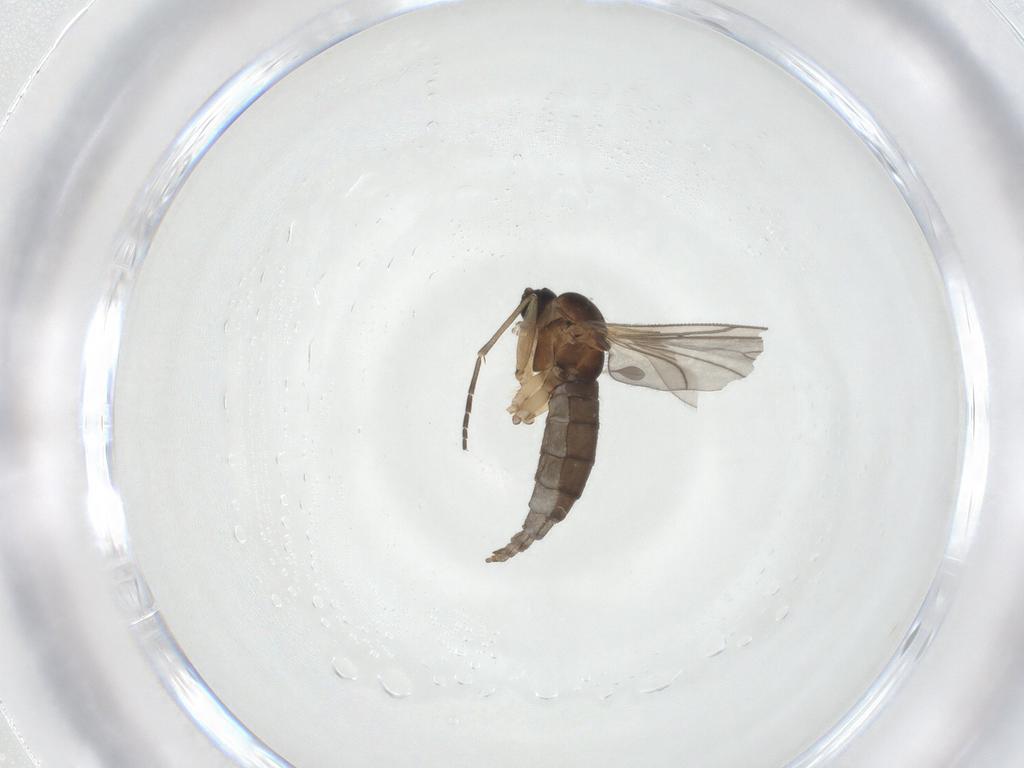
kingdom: Animalia
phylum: Arthropoda
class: Insecta
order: Diptera
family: Sciaridae
